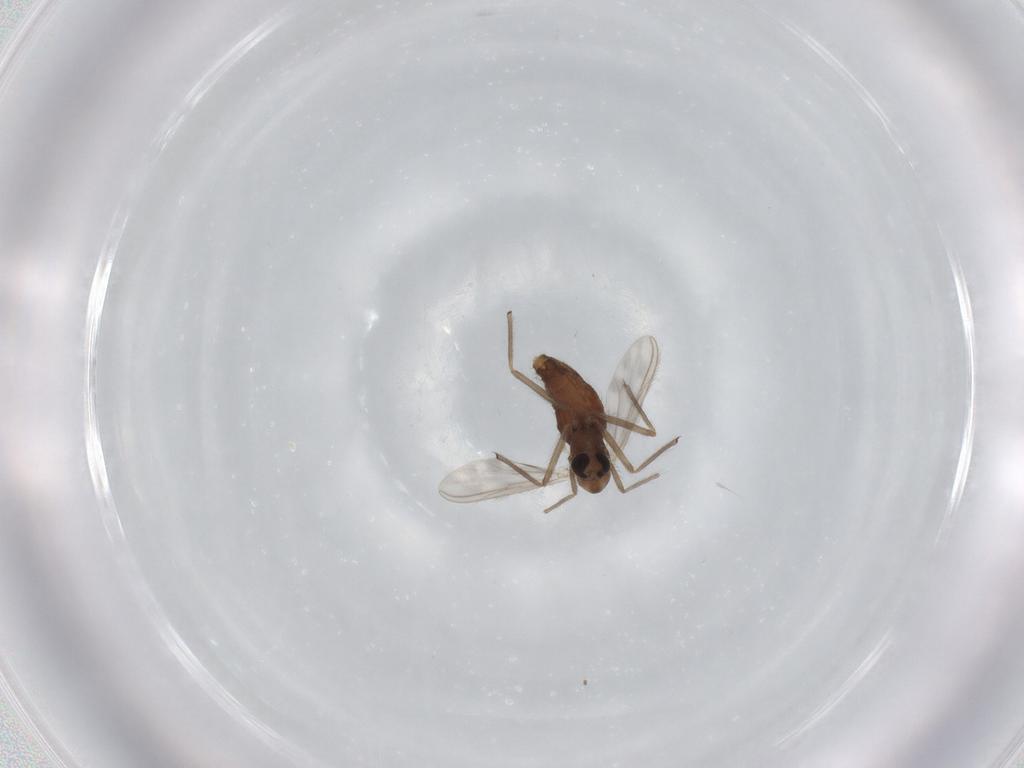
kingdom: Animalia
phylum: Arthropoda
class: Insecta
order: Diptera
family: Chironomidae
